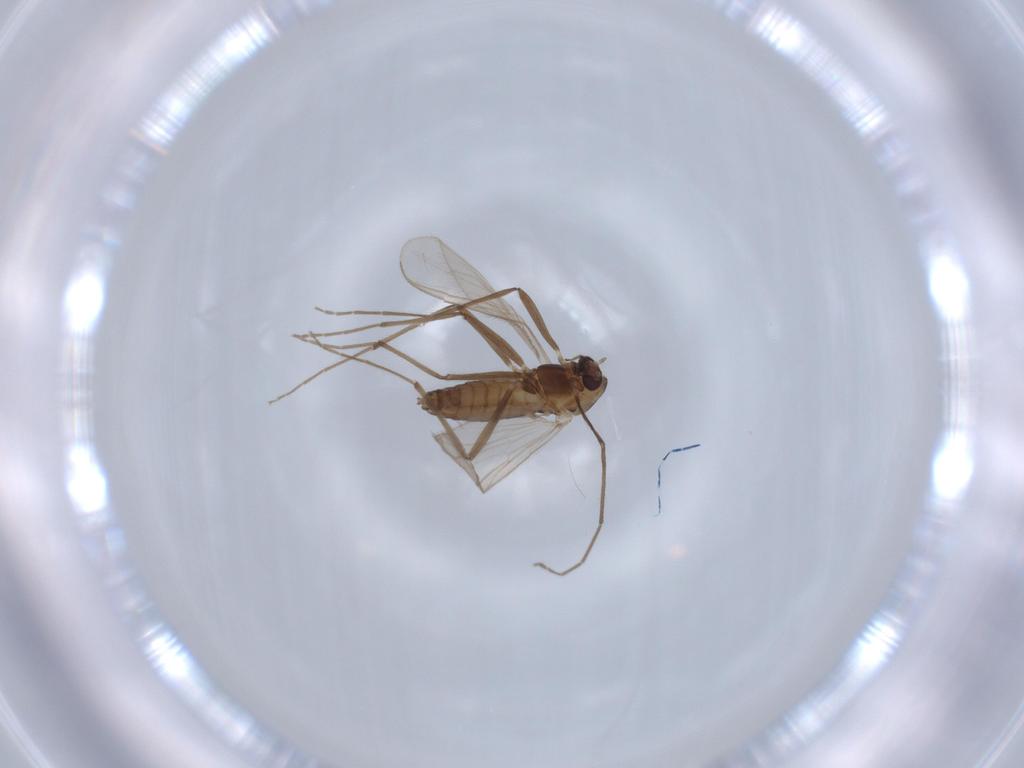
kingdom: Animalia
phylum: Arthropoda
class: Insecta
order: Diptera
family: Chironomidae
